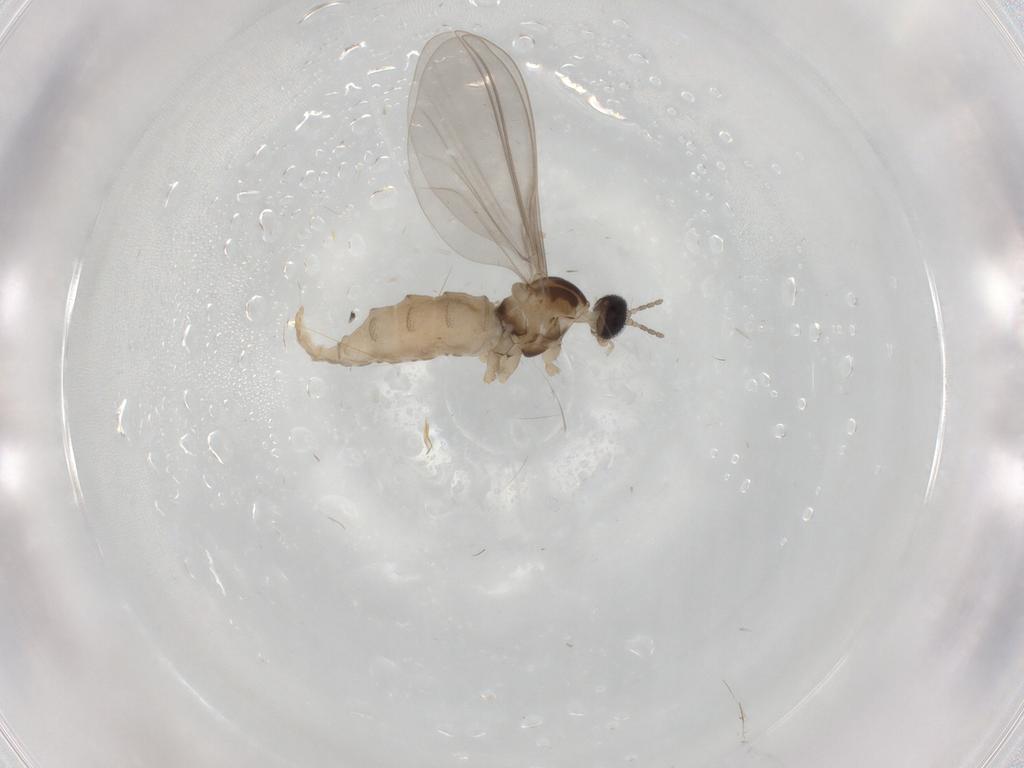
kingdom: Animalia
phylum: Arthropoda
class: Insecta
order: Diptera
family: Cecidomyiidae
